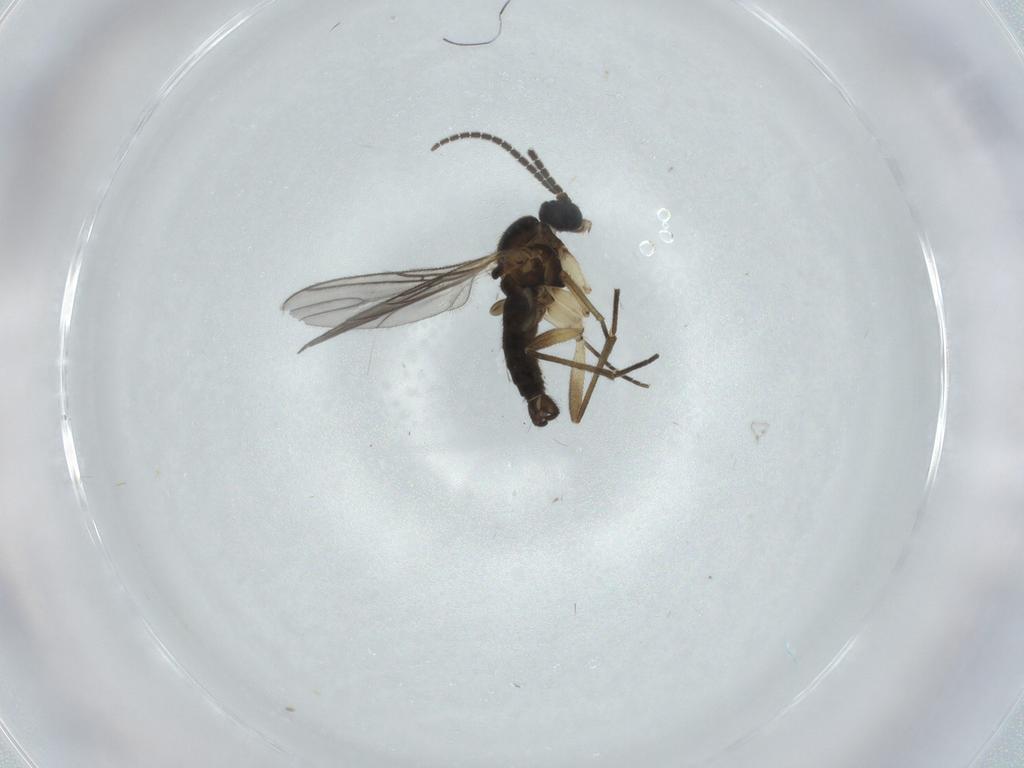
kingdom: Animalia
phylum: Arthropoda
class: Insecta
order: Diptera
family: Sciaridae
